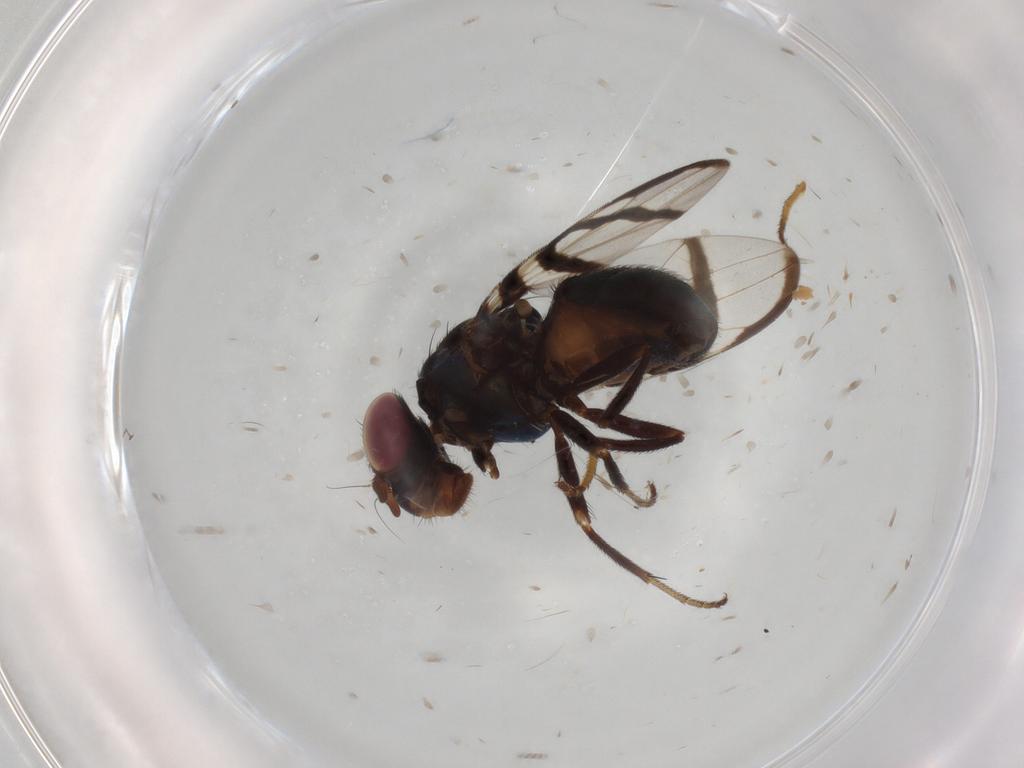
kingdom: Animalia
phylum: Arthropoda
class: Insecta
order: Diptera
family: Ulidiidae
